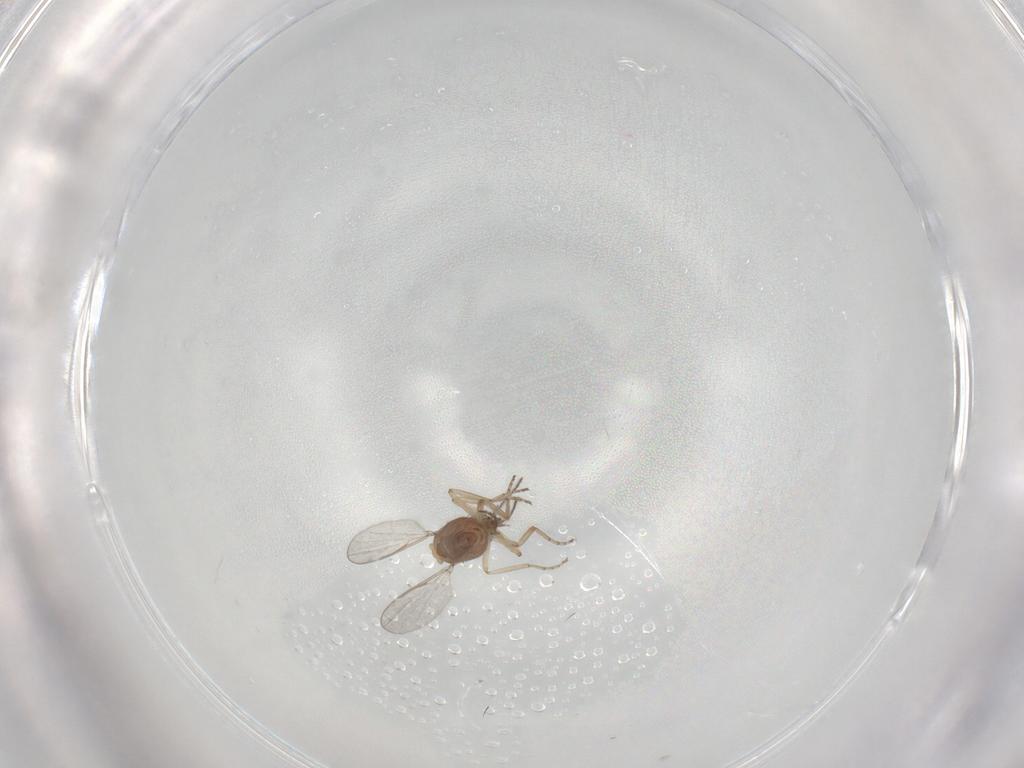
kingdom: Animalia
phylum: Arthropoda
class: Insecta
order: Diptera
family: Ceratopogonidae
